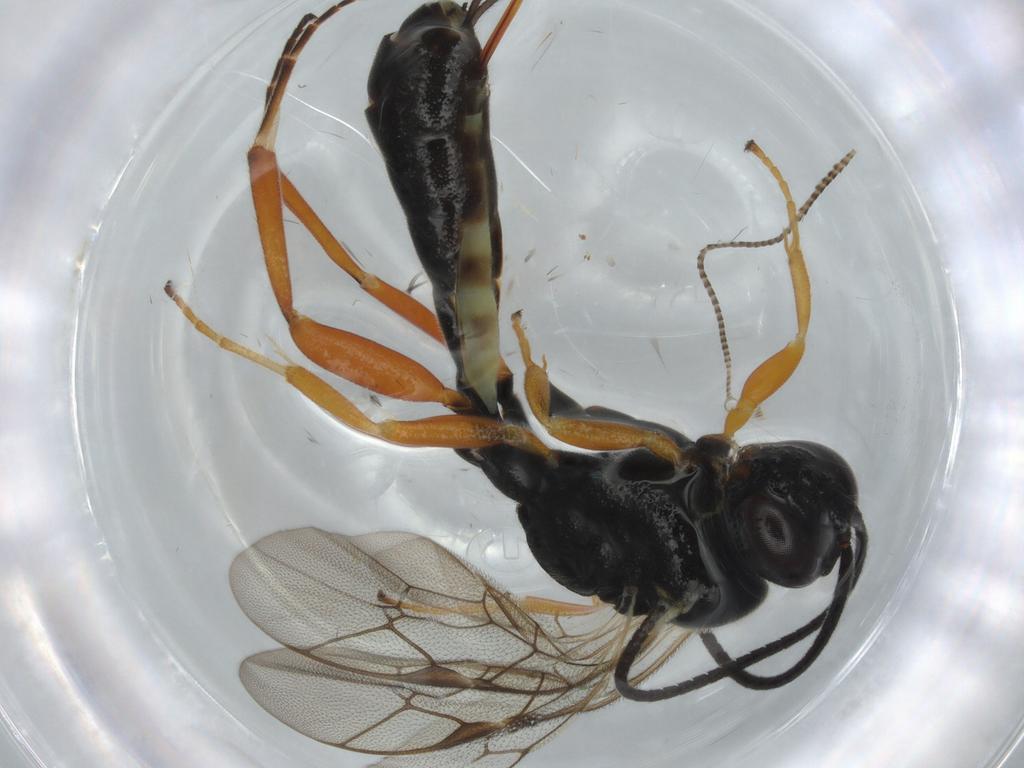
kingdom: Animalia
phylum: Arthropoda
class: Insecta
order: Hymenoptera
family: Ichneumonidae
